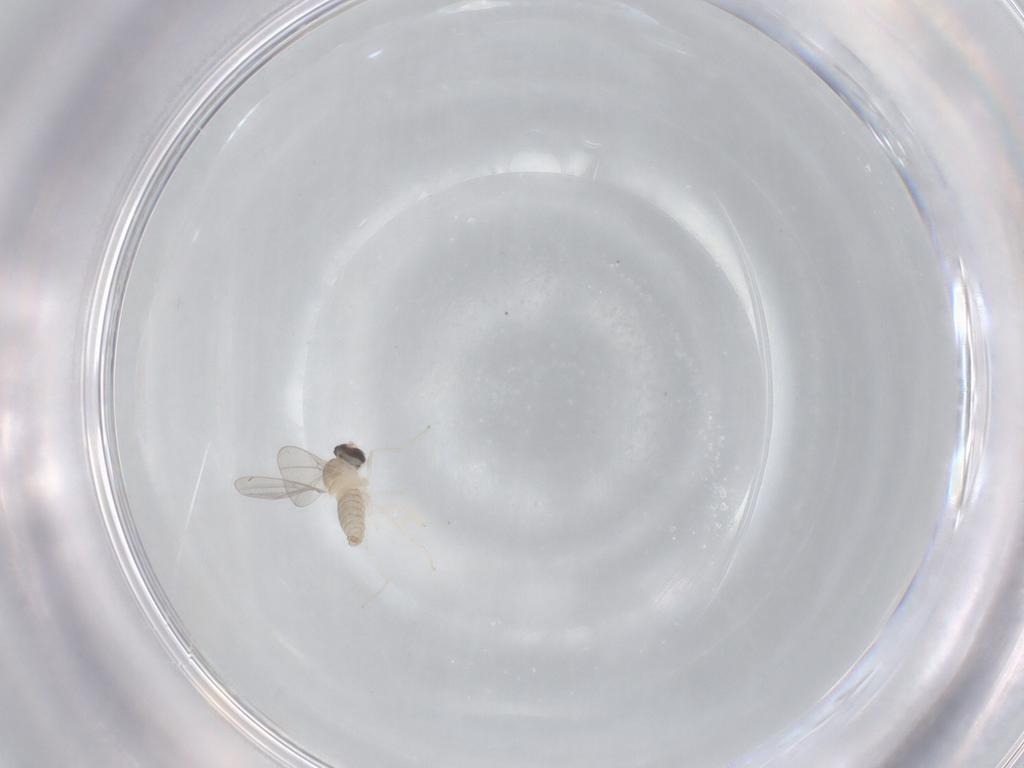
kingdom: Animalia
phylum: Arthropoda
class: Insecta
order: Diptera
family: Cecidomyiidae
